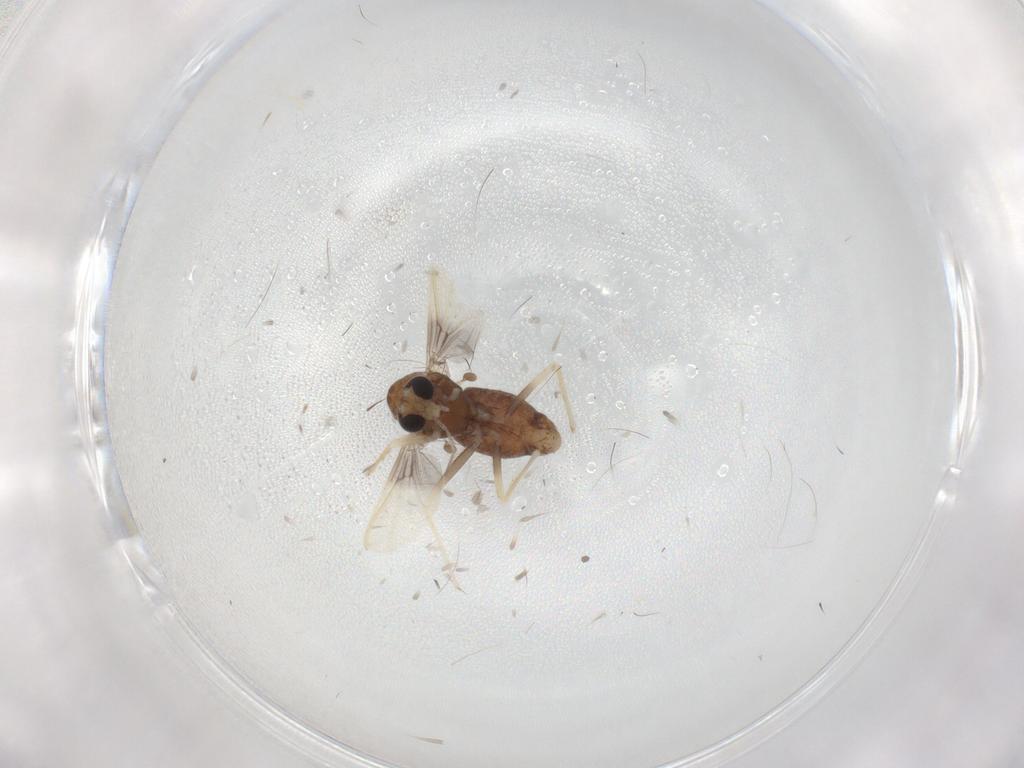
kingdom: Animalia
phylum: Arthropoda
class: Insecta
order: Diptera
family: Chironomidae
